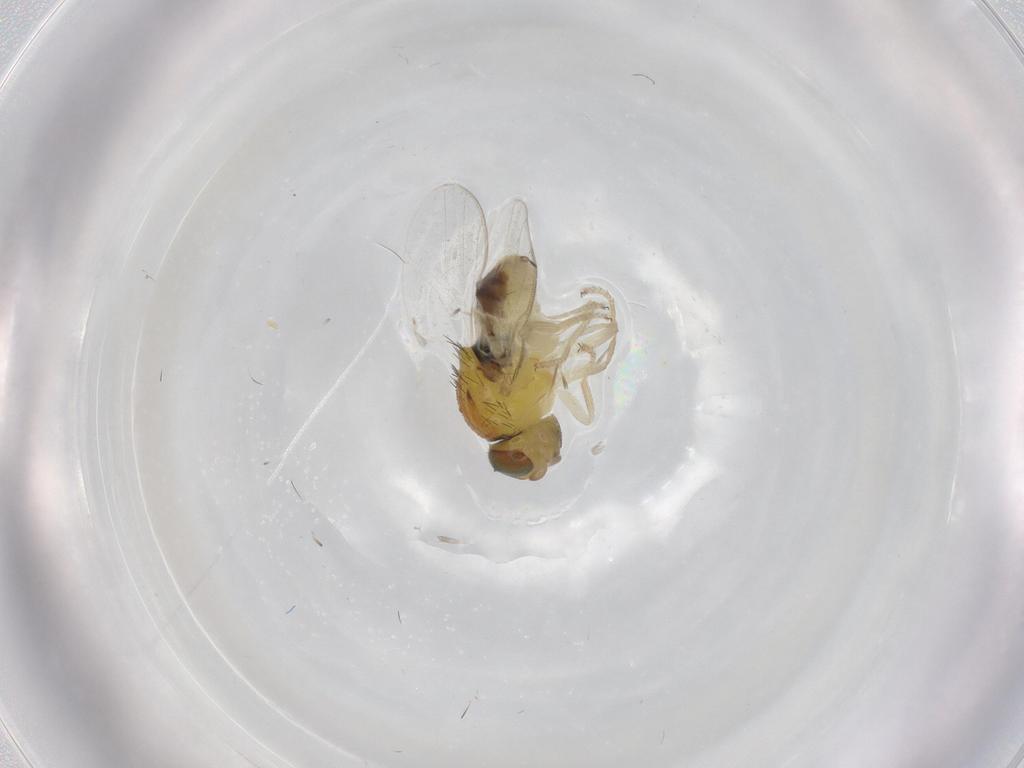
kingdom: Animalia
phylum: Arthropoda
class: Insecta
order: Diptera
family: Chloropidae
